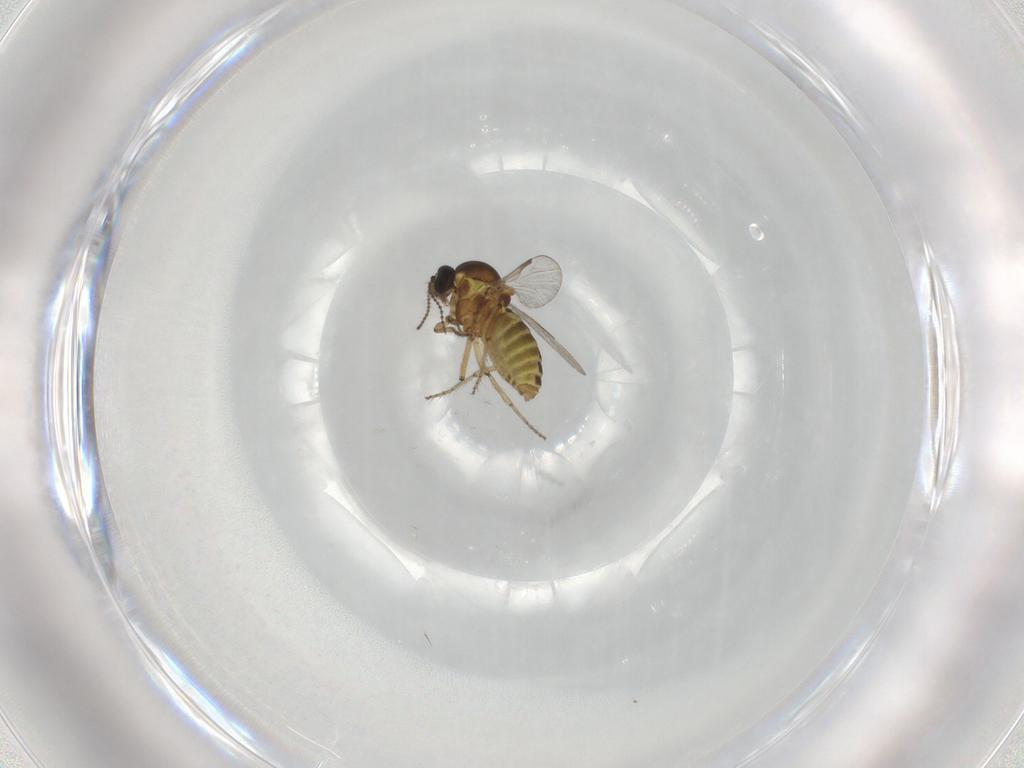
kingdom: Animalia
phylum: Arthropoda
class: Insecta
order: Diptera
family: Ceratopogonidae
